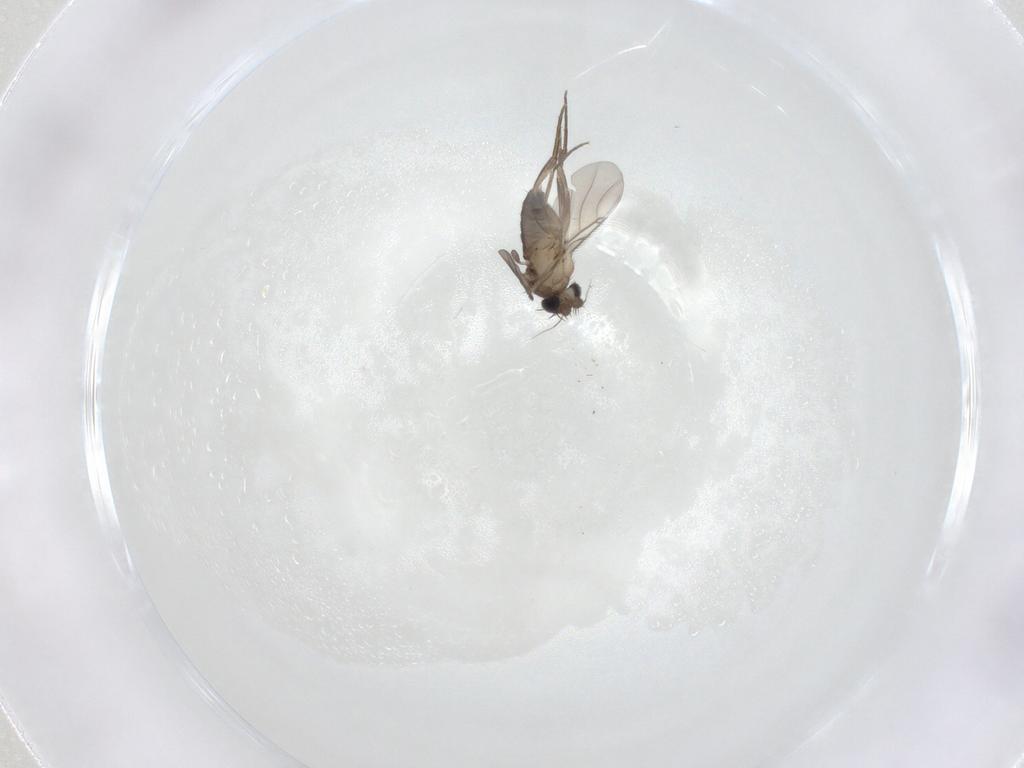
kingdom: Animalia
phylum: Arthropoda
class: Insecta
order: Diptera
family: Phoridae
